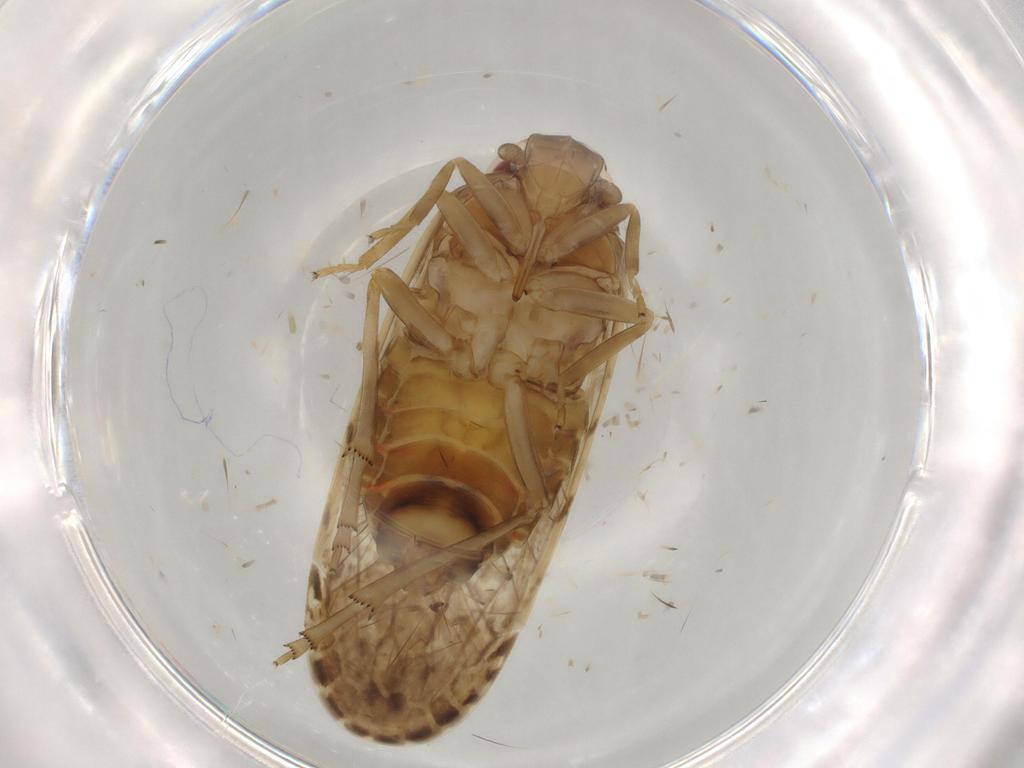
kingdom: Animalia
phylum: Arthropoda
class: Insecta
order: Hemiptera
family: Cicadellidae
